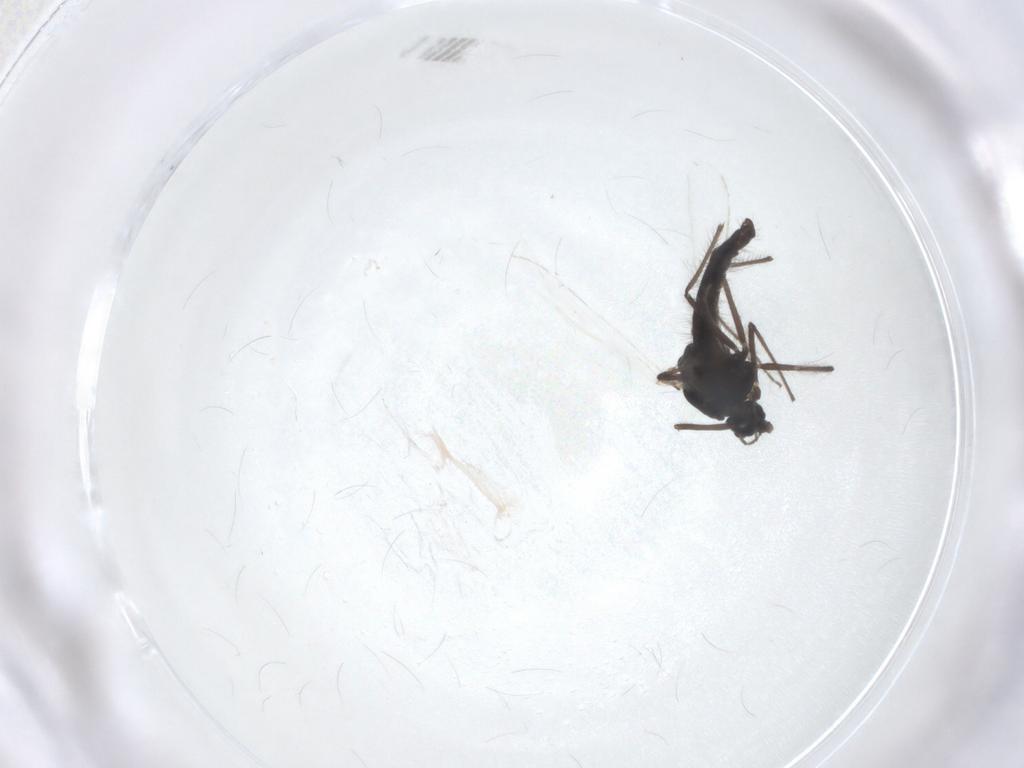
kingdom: Animalia
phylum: Arthropoda
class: Insecta
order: Diptera
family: Chironomidae
